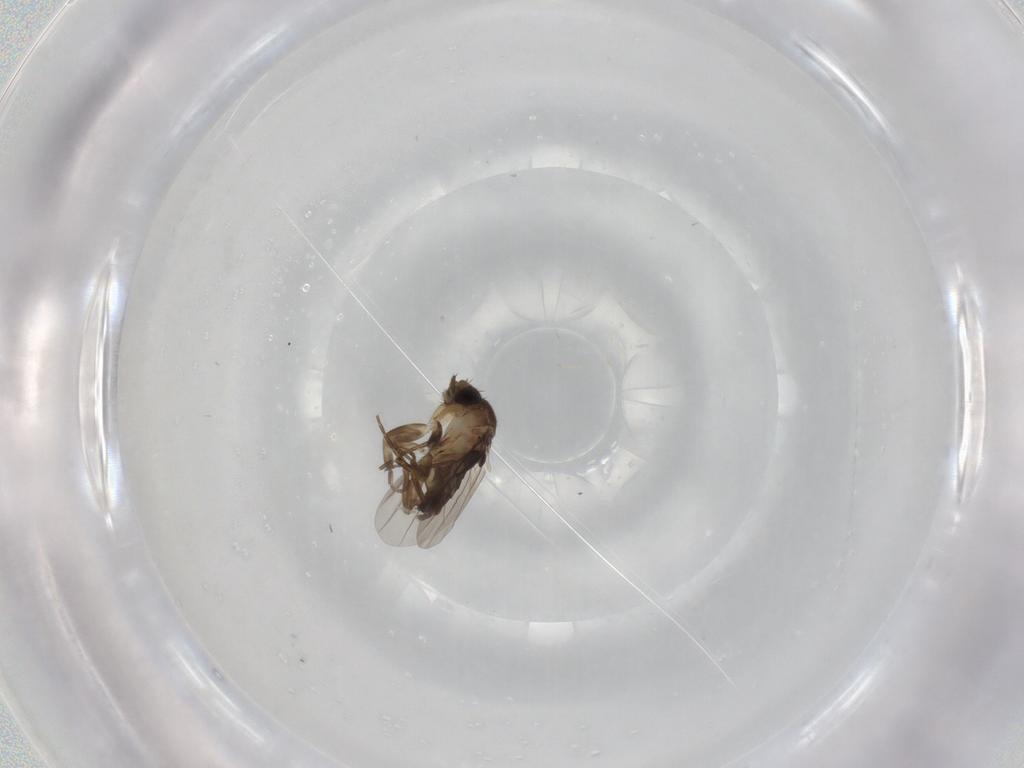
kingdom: Animalia
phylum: Arthropoda
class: Insecta
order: Diptera
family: Sciaridae
